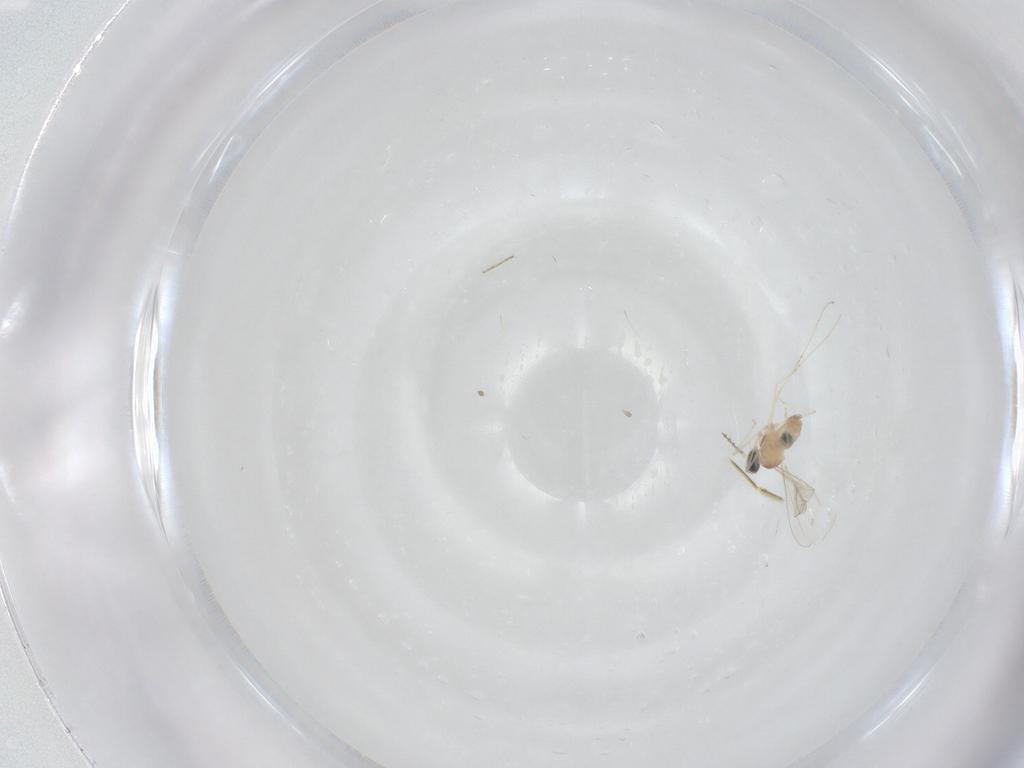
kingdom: Animalia
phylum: Arthropoda
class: Insecta
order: Diptera
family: Cecidomyiidae
